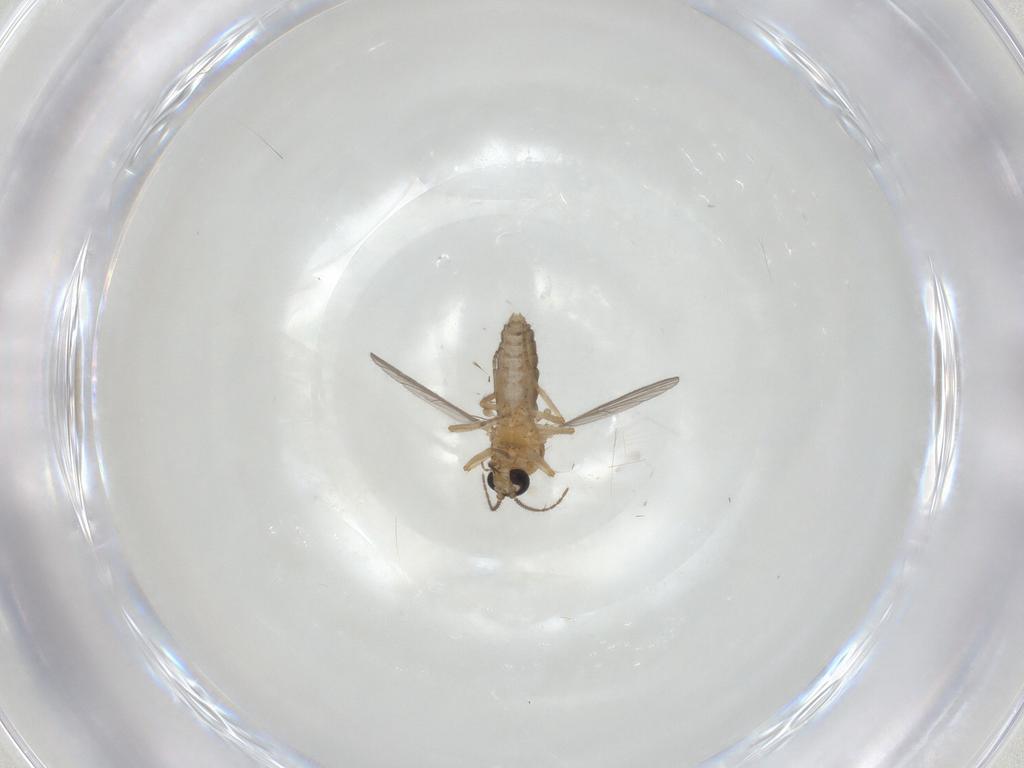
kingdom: Animalia
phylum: Arthropoda
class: Insecta
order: Diptera
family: Ceratopogonidae
